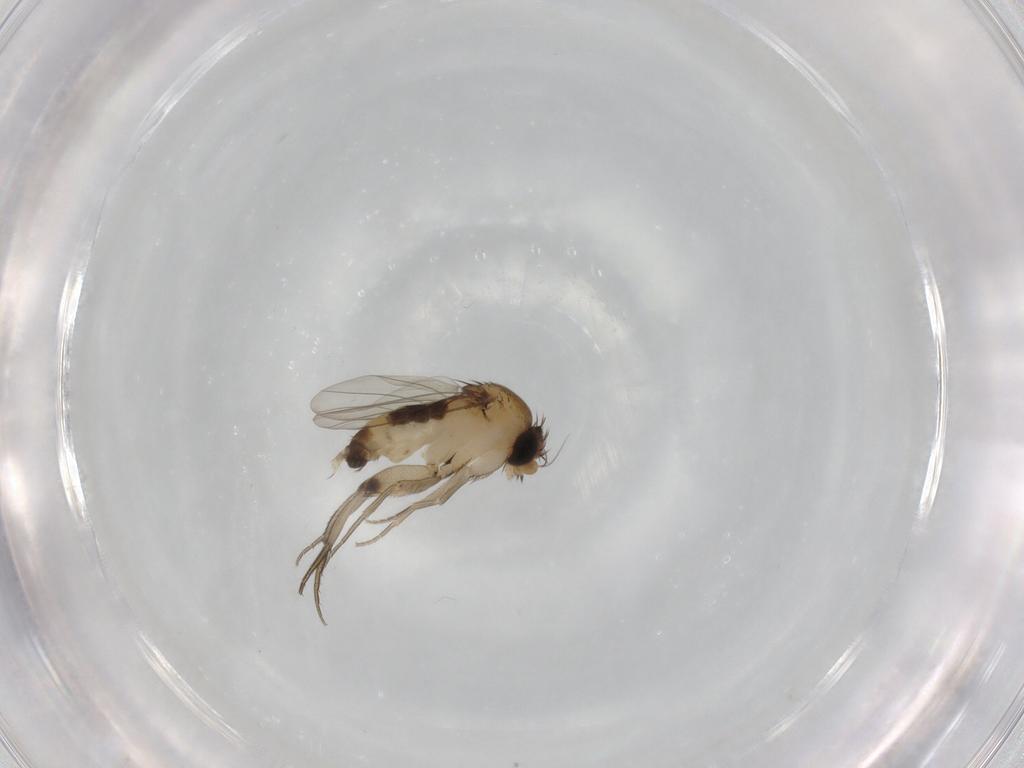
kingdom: Animalia
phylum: Arthropoda
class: Insecta
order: Diptera
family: Phoridae
